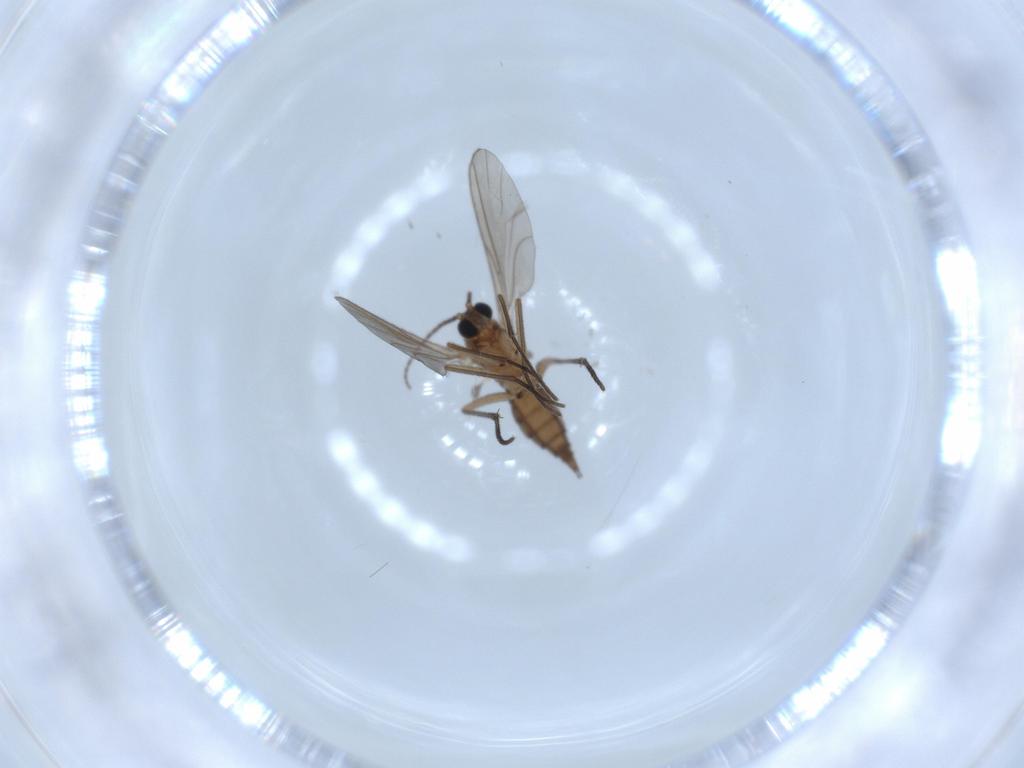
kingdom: Animalia
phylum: Arthropoda
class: Insecta
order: Diptera
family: Sciaridae
